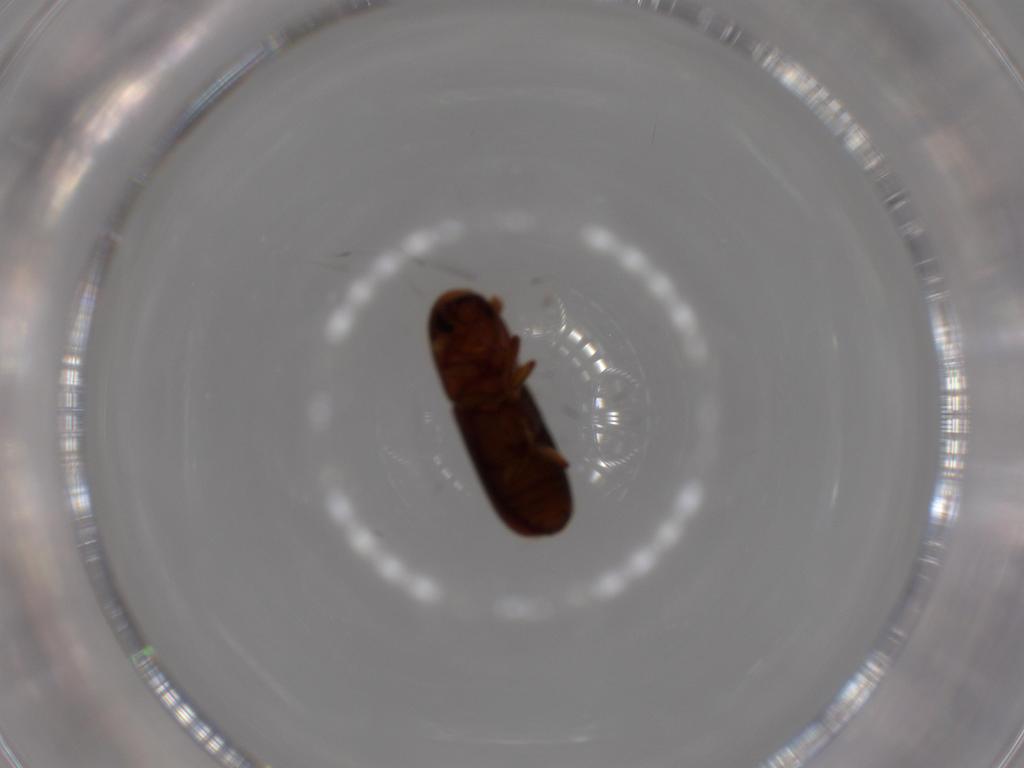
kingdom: Animalia
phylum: Arthropoda
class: Insecta
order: Coleoptera
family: Curculionidae
